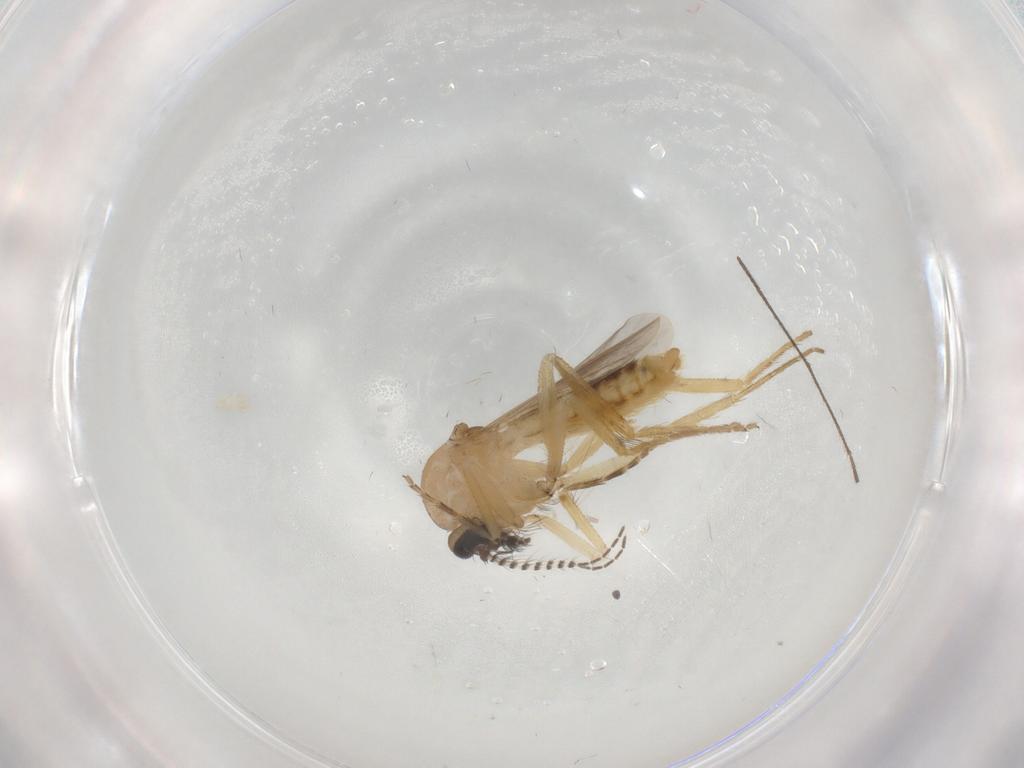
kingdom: Animalia
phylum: Arthropoda
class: Insecta
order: Diptera
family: Ceratopogonidae
